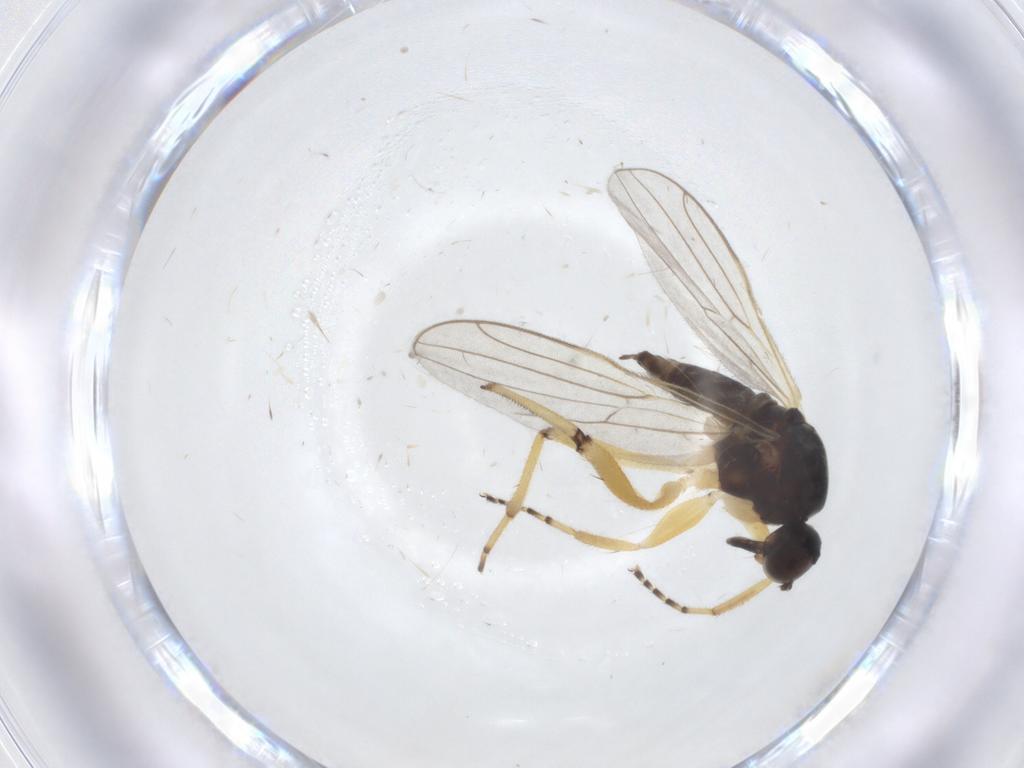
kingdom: Animalia
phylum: Arthropoda
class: Insecta
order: Diptera
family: Hybotidae
